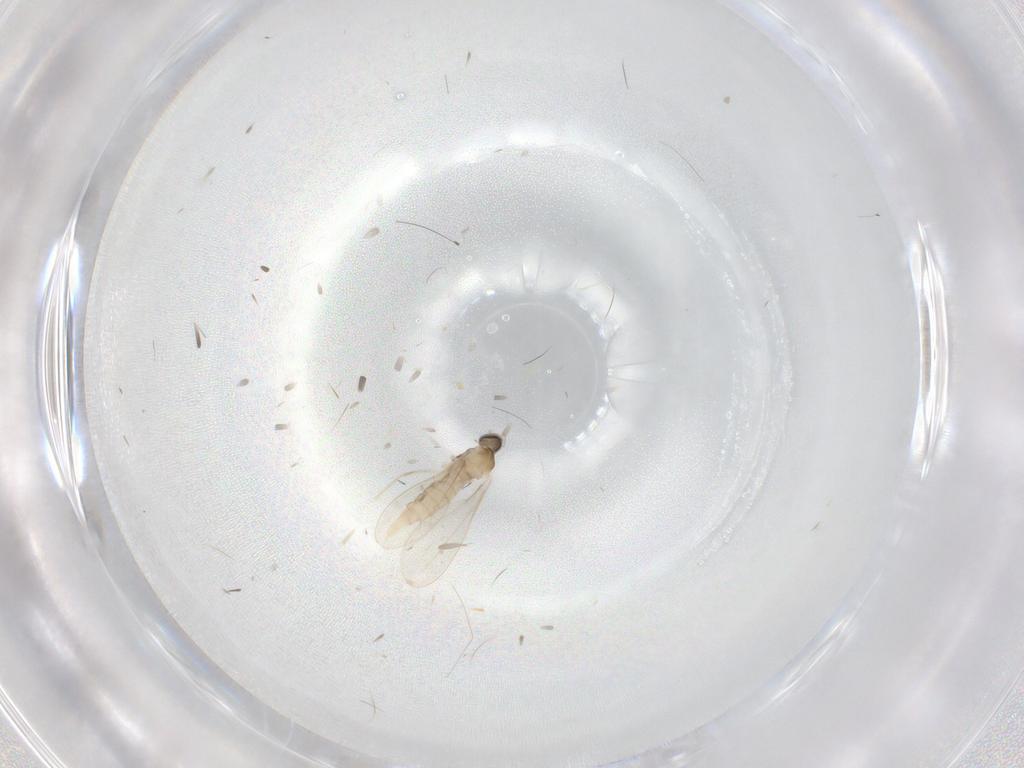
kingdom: Animalia
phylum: Arthropoda
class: Insecta
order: Diptera
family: Cecidomyiidae
